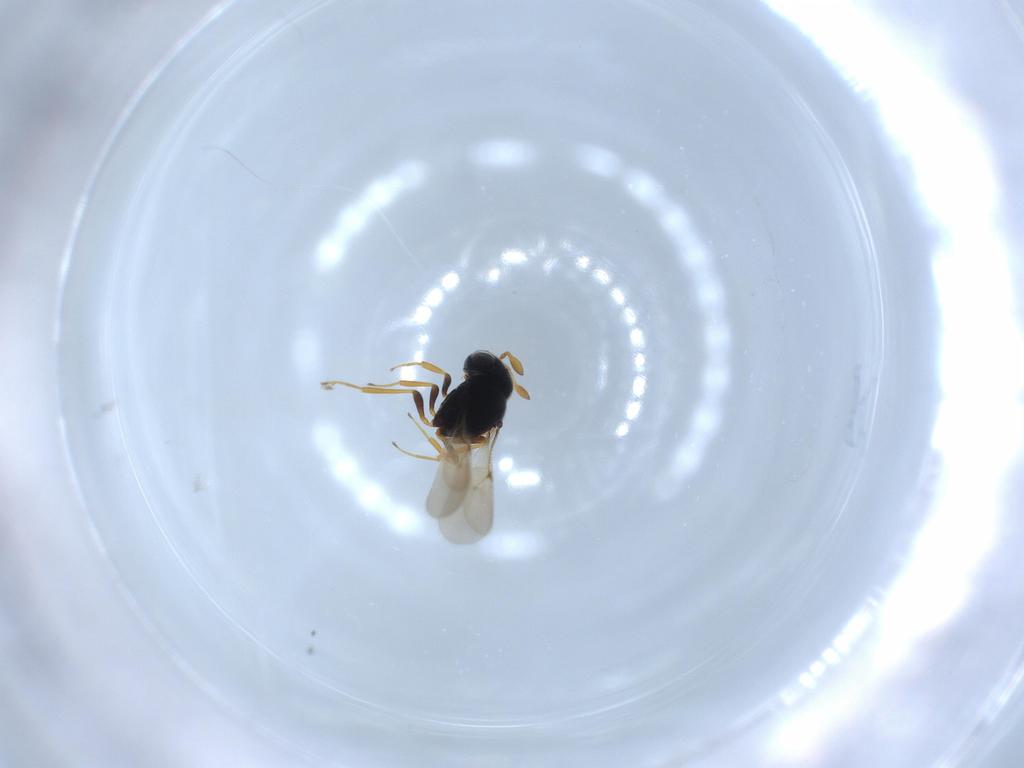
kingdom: Animalia
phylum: Arthropoda
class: Insecta
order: Hymenoptera
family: Scelionidae
